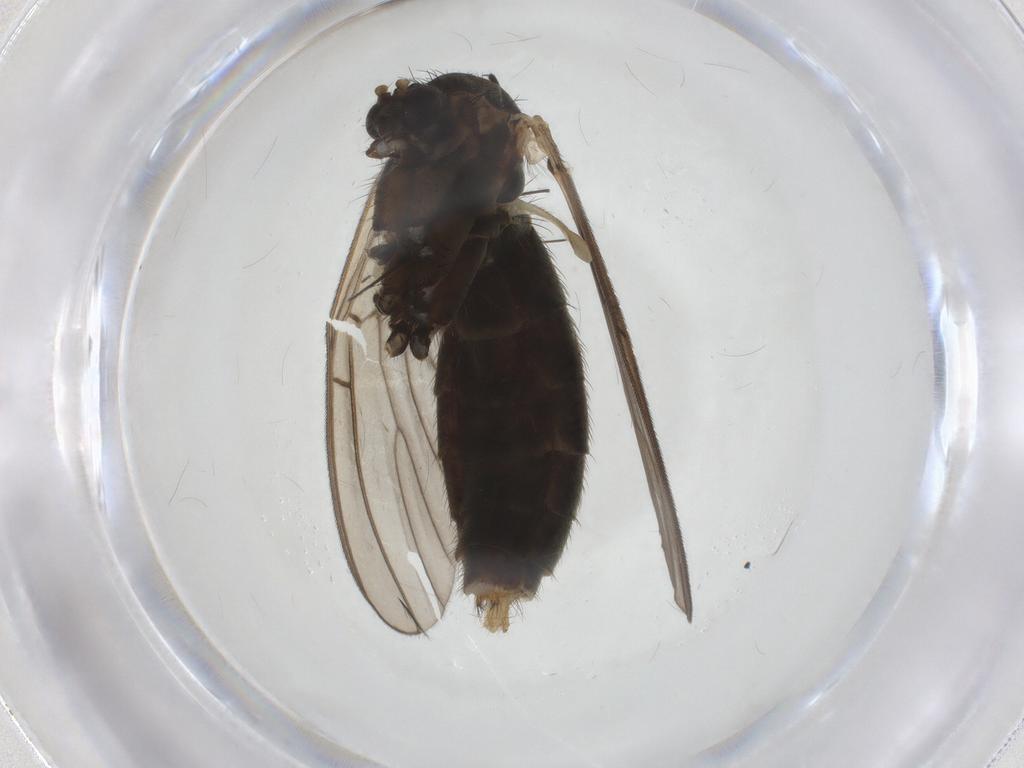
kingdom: Animalia
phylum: Arthropoda
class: Insecta
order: Diptera
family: Mycetophilidae
